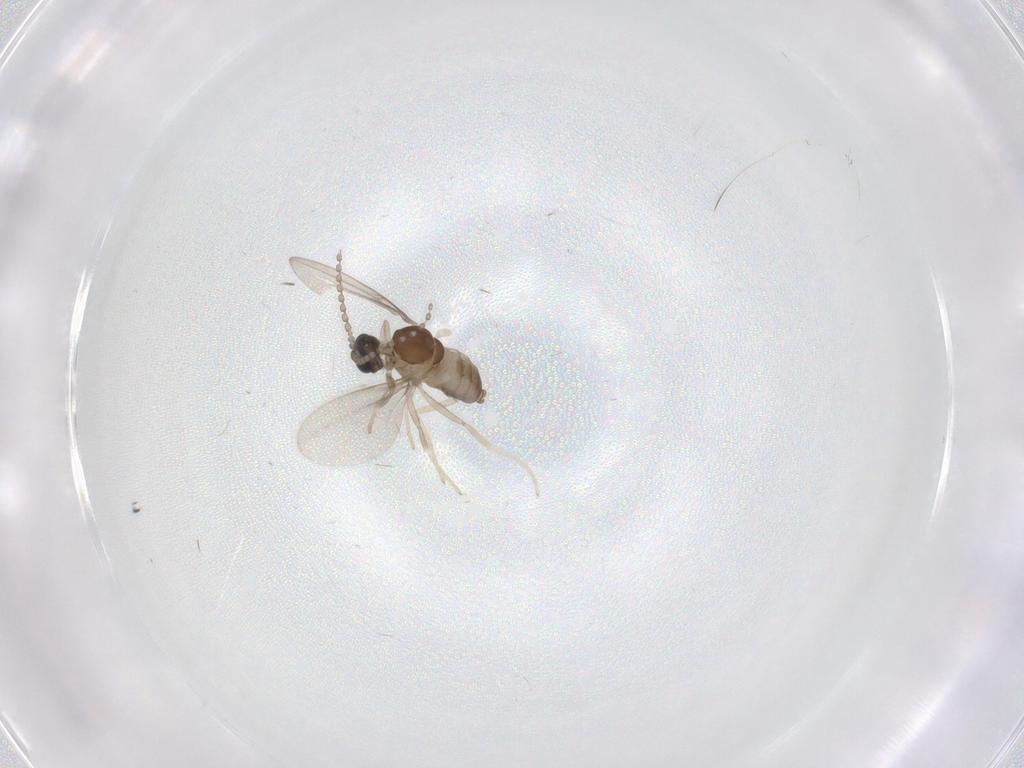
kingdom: Animalia
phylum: Arthropoda
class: Insecta
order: Diptera
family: Cecidomyiidae
